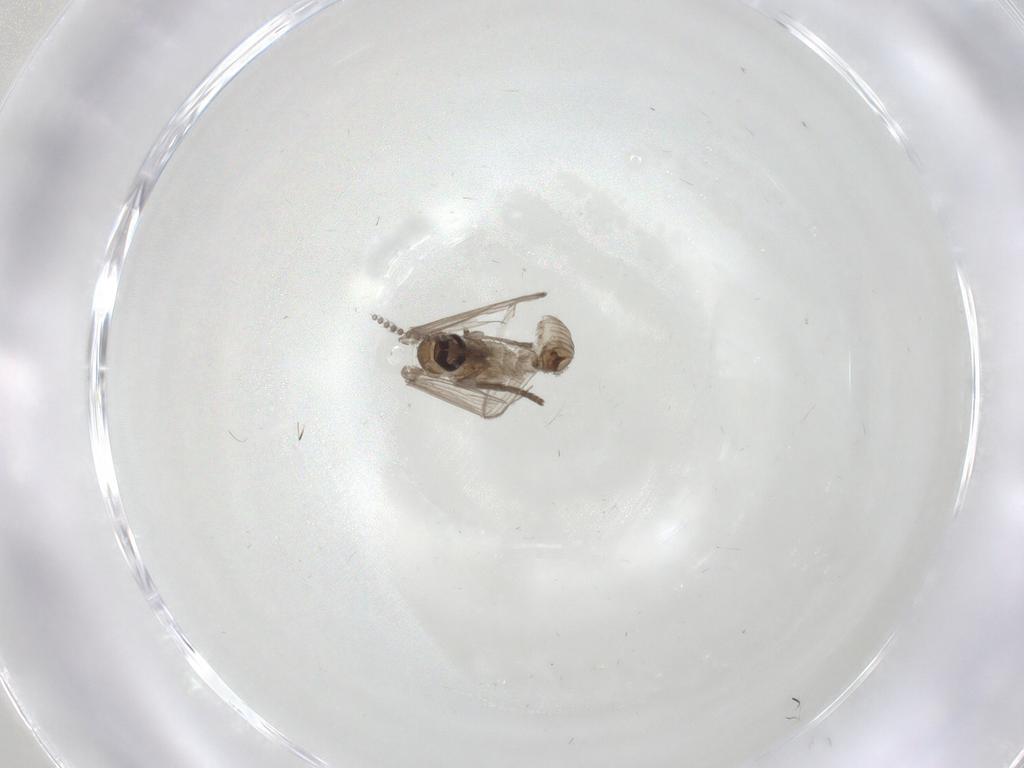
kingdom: Animalia
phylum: Arthropoda
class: Insecta
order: Diptera
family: Psychodidae
